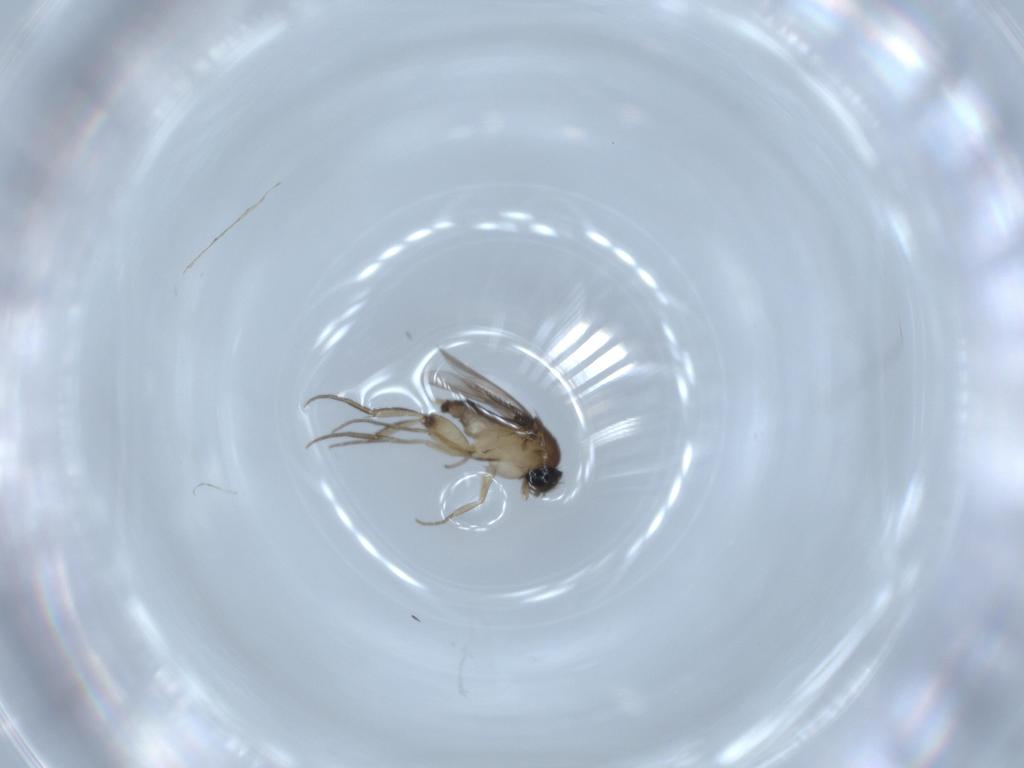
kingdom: Animalia
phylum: Arthropoda
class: Insecta
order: Diptera
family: Phoridae
